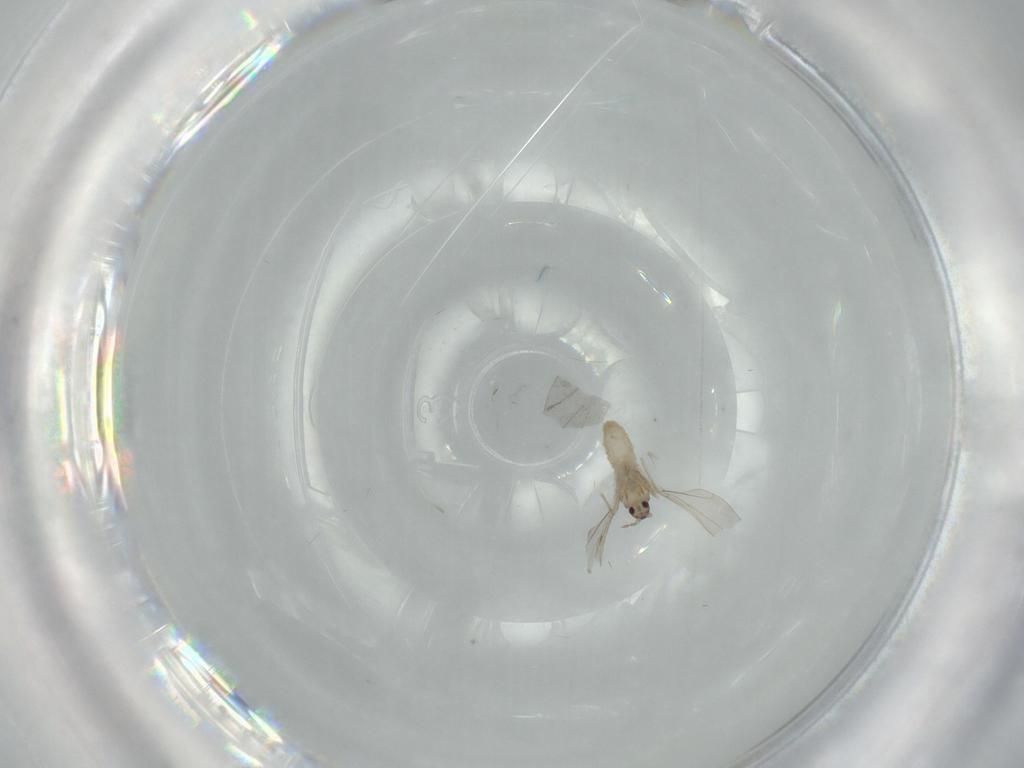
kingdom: Animalia
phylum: Arthropoda
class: Insecta
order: Diptera
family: Cecidomyiidae
